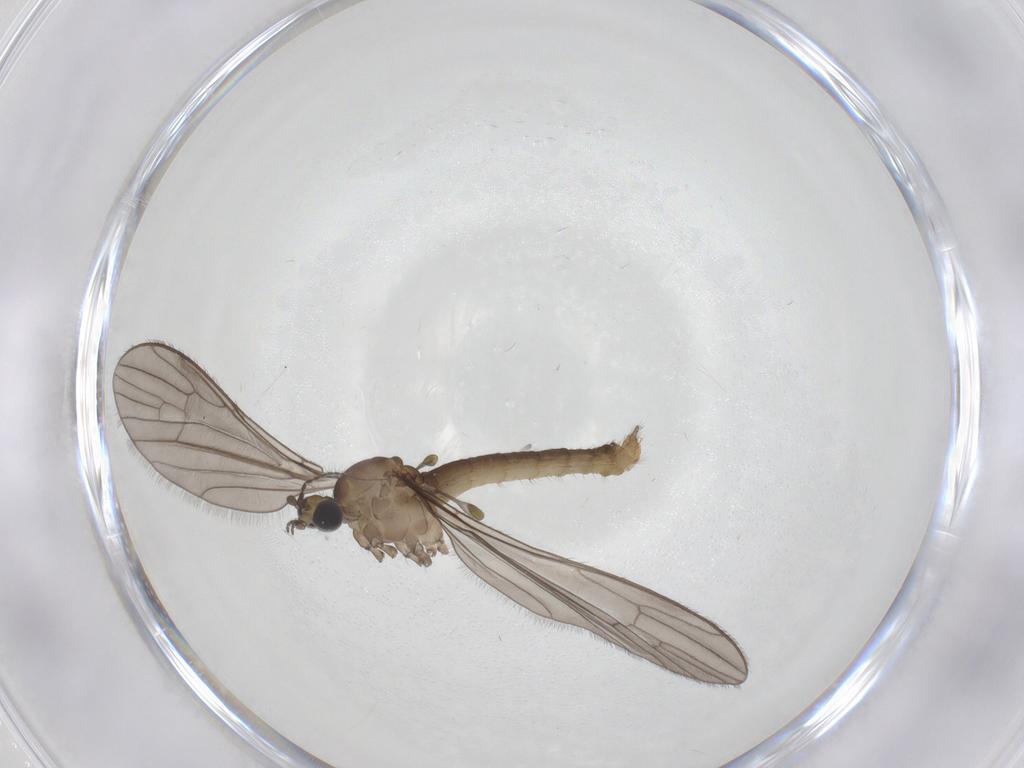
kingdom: Animalia
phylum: Arthropoda
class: Insecta
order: Diptera
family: Limoniidae
